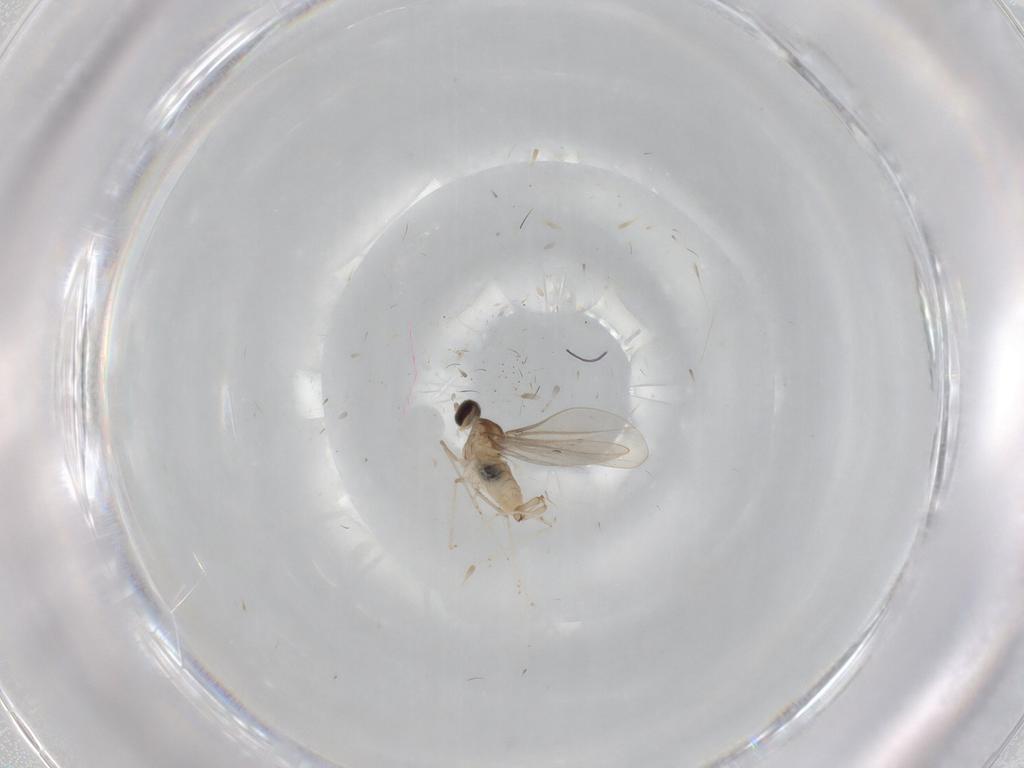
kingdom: Animalia
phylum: Arthropoda
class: Insecta
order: Diptera
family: Cecidomyiidae
